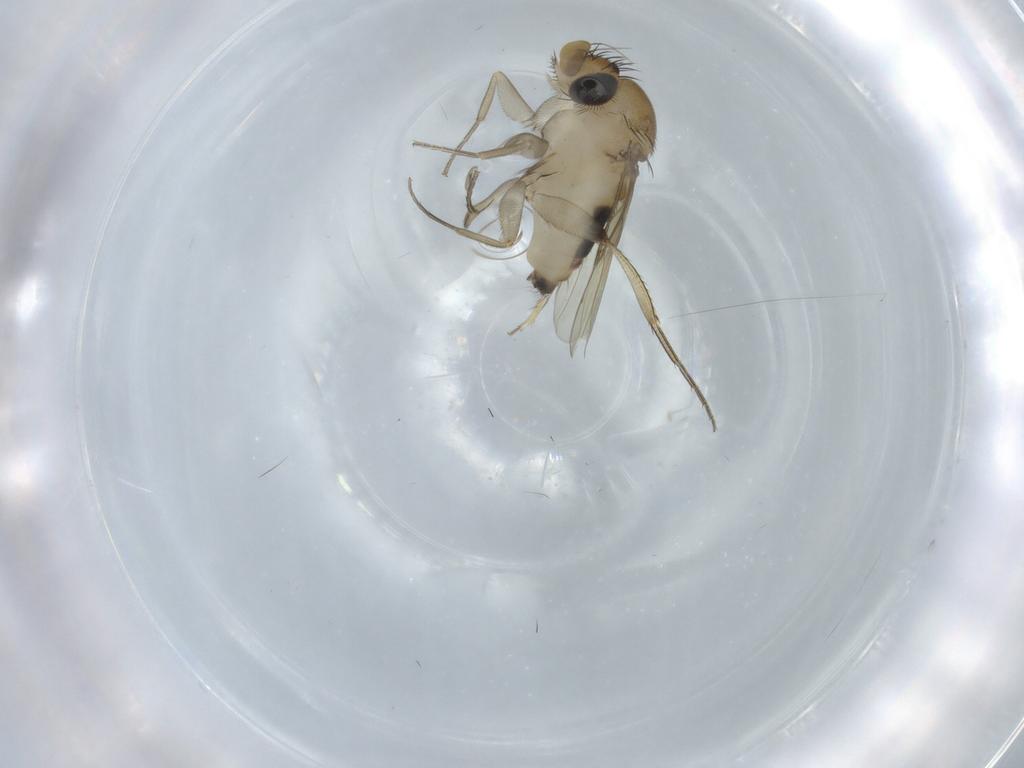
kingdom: Animalia
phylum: Arthropoda
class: Insecta
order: Diptera
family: Phoridae
